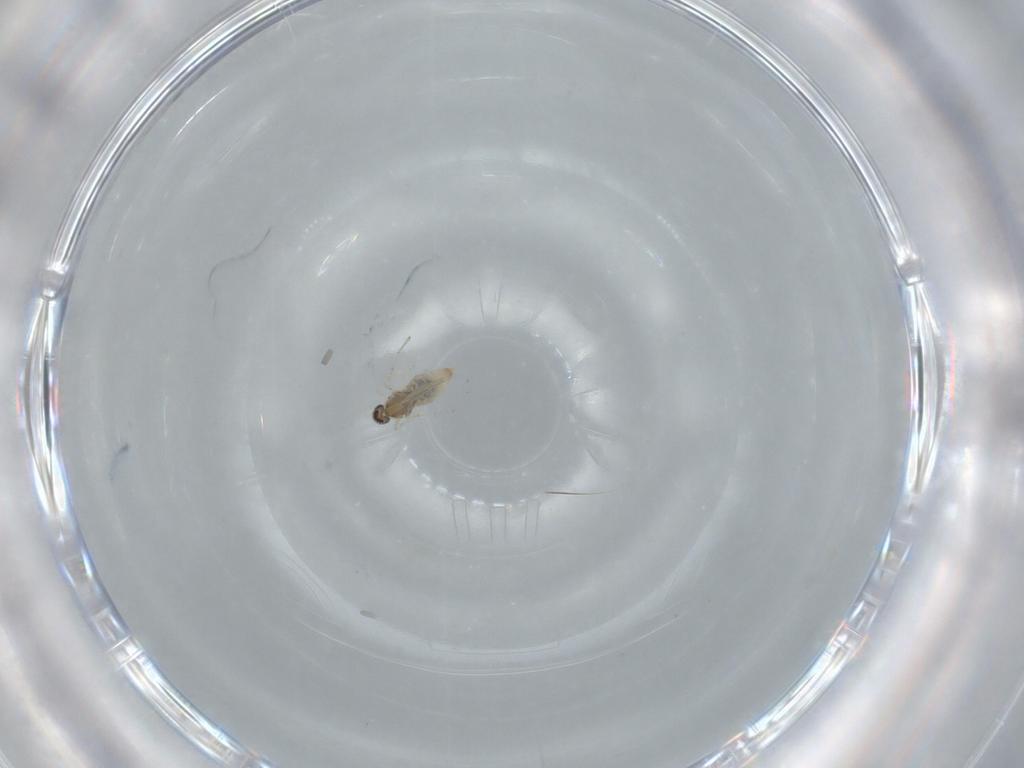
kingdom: Animalia
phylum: Arthropoda
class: Insecta
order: Diptera
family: Cecidomyiidae
